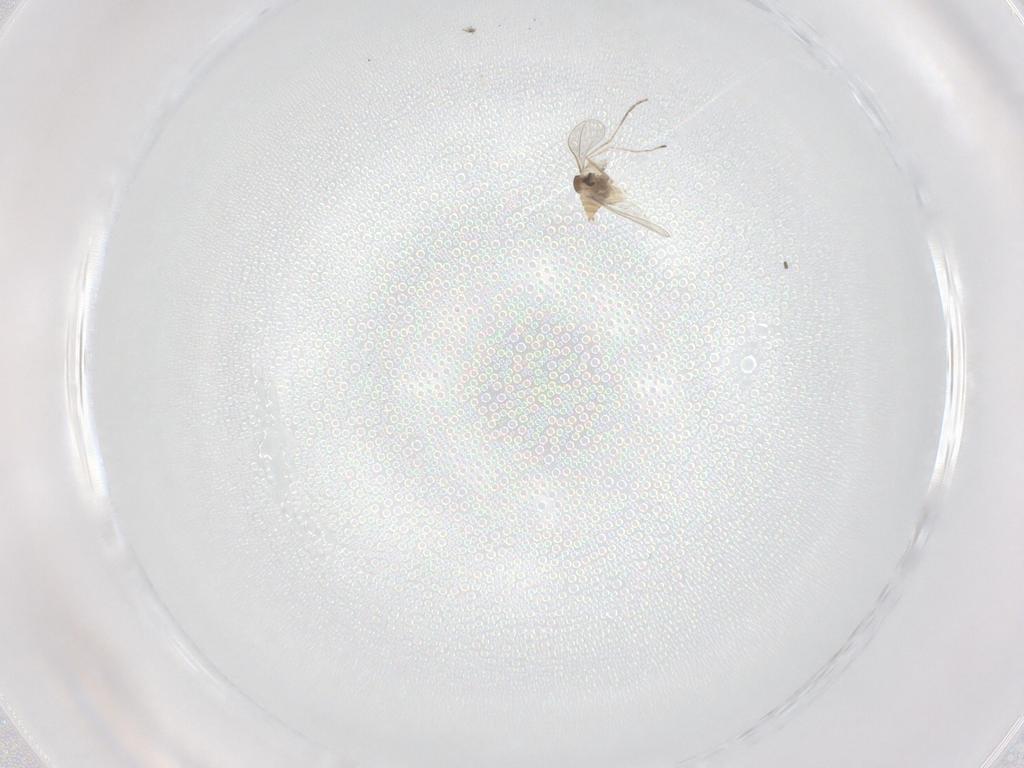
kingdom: Animalia
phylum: Arthropoda
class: Insecta
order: Diptera
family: Cecidomyiidae
